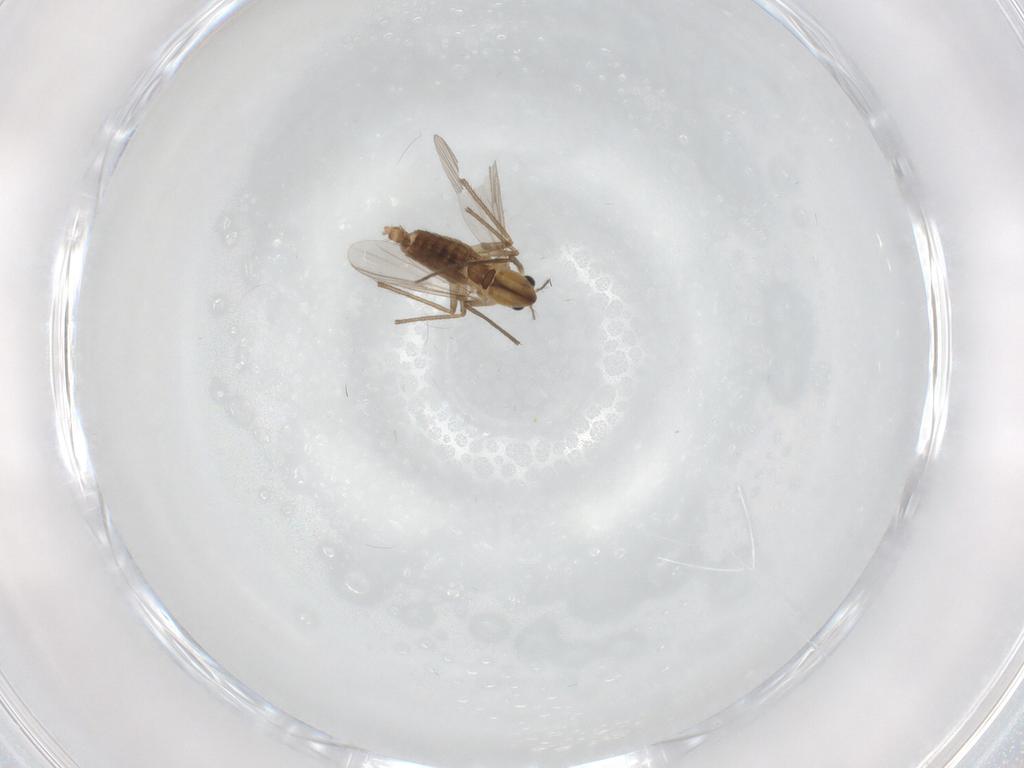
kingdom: Animalia
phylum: Arthropoda
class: Insecta
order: Diptera
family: Chironomidae
